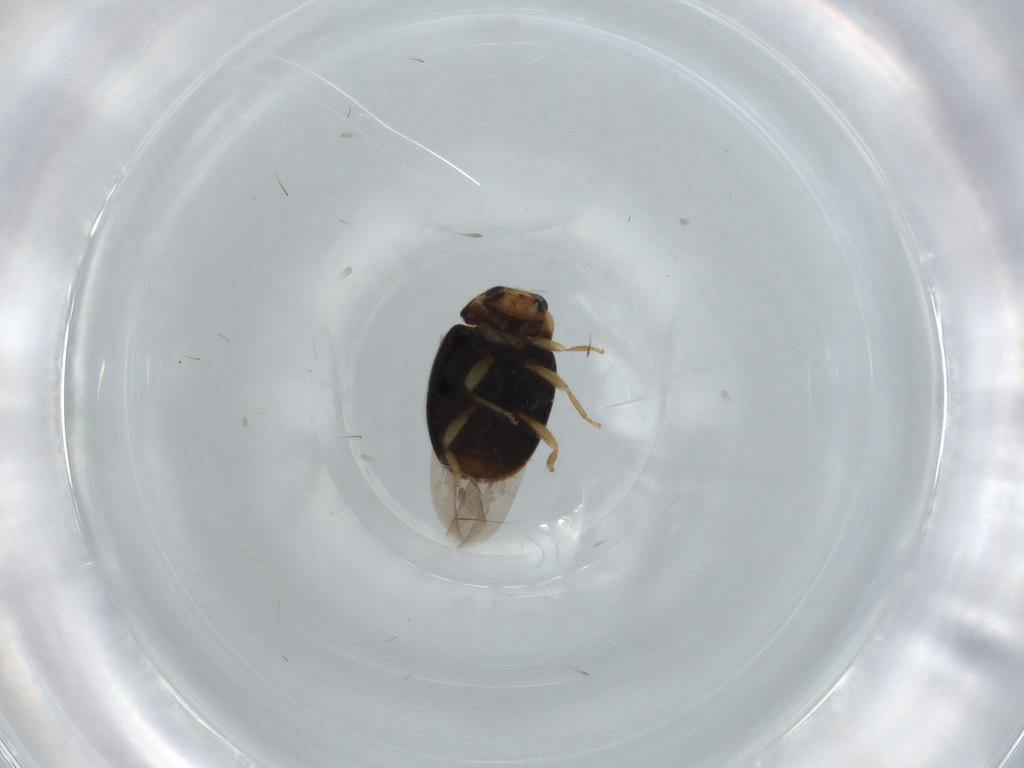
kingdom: Animalia
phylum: Arthropoda
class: Insecta
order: Coleoptera
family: Coccinellidae
